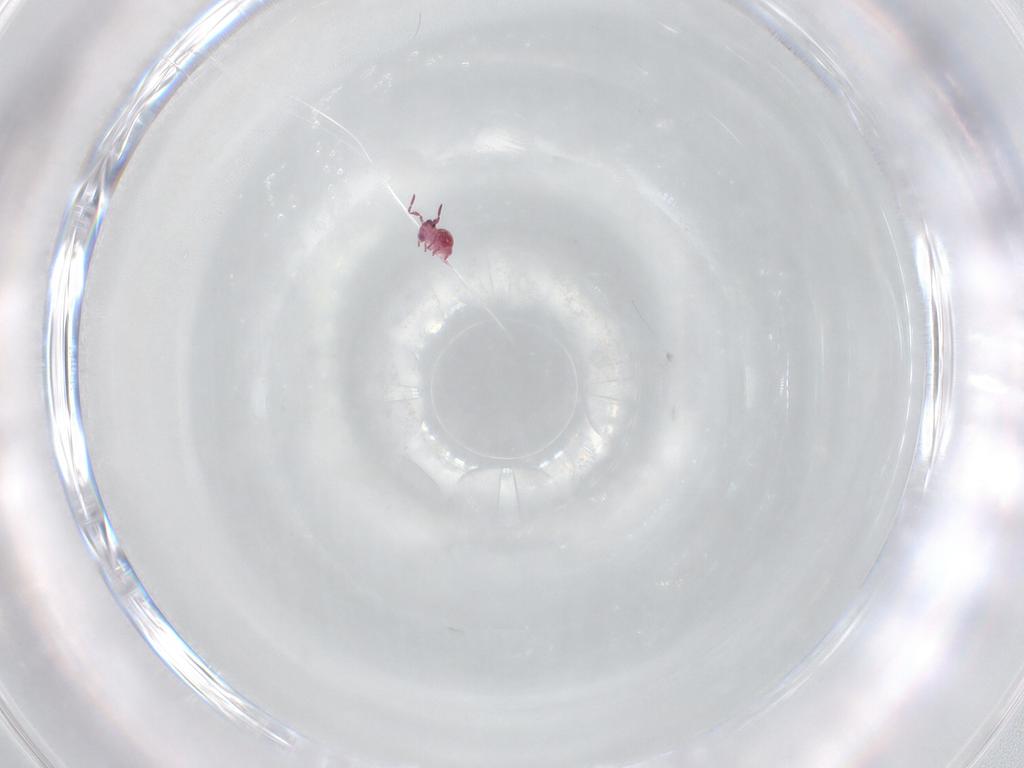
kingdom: Animalia
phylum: Arthropoda
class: Collembola
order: Symphypleona
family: Sminthurididae
